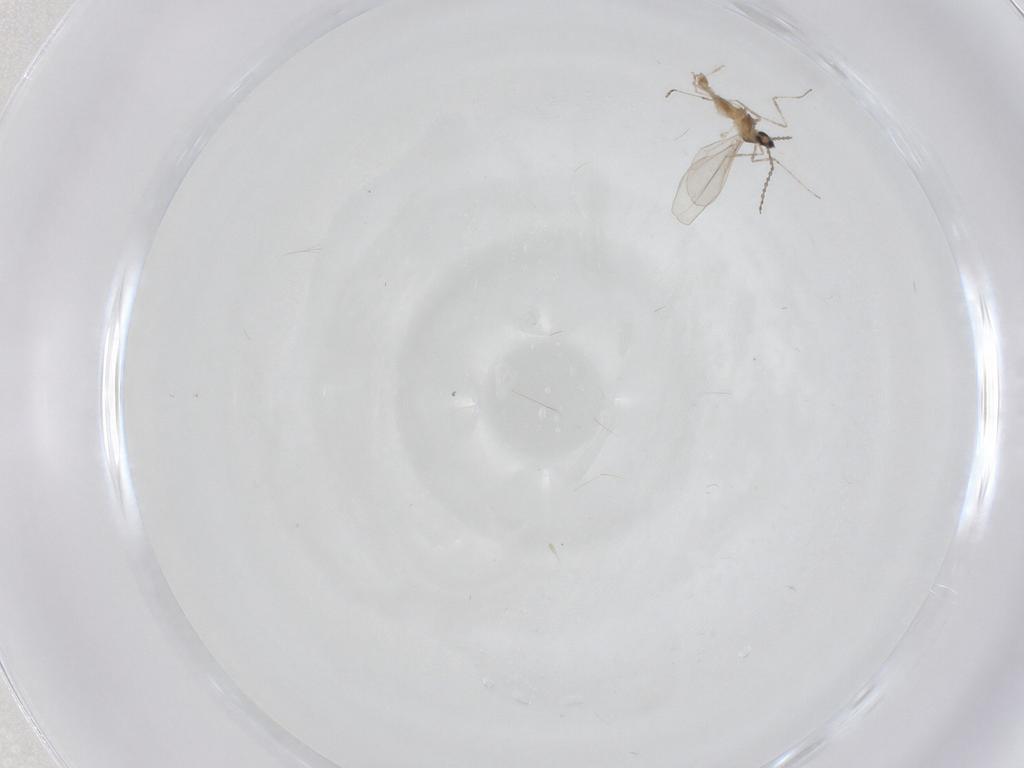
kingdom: Animalia
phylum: Arthropoda
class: Insecta
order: Diptera
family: Cecidomyiidae
